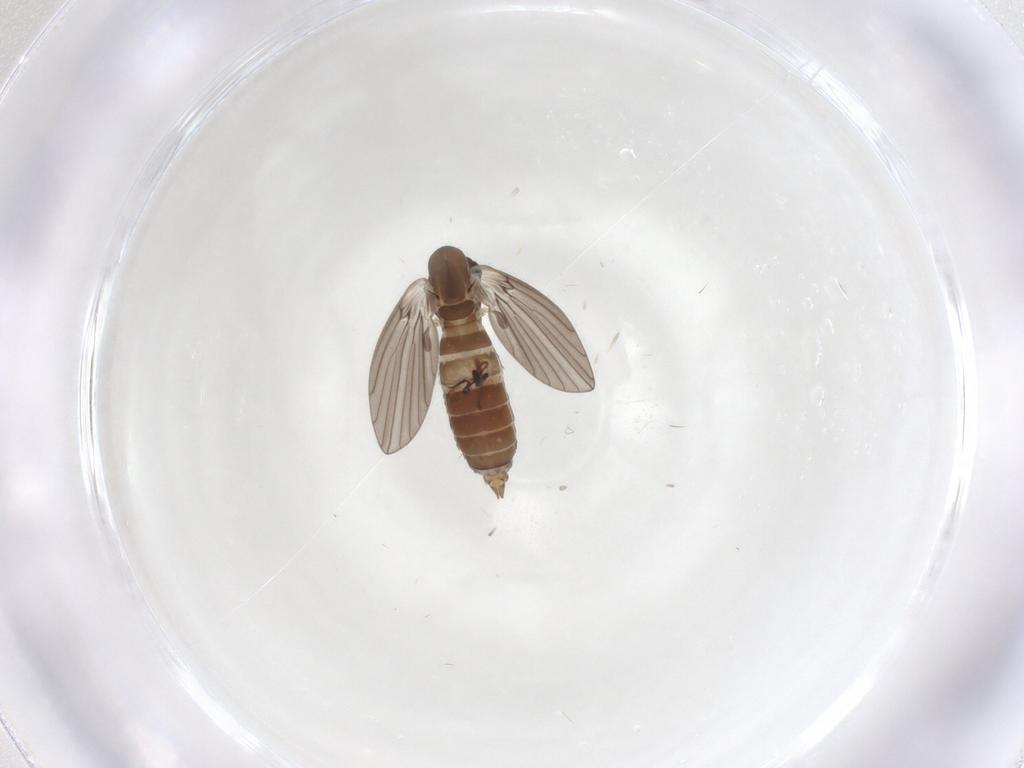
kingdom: Animalia
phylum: Arthropoda
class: Insecta
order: Diptera
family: Psychodidae
